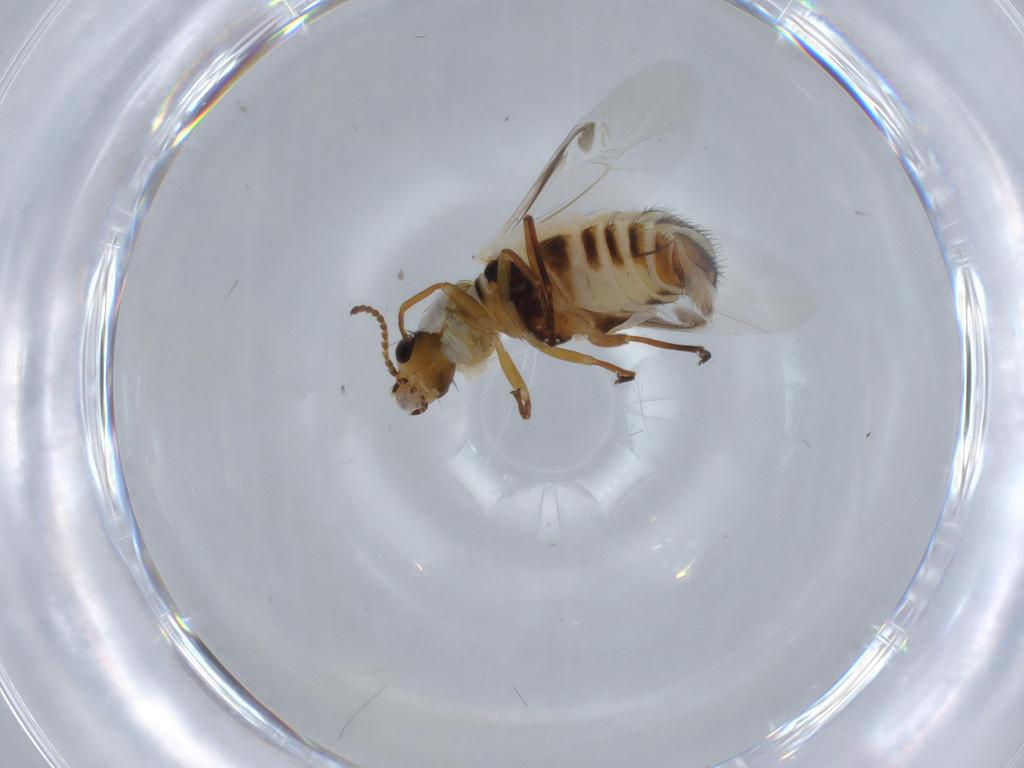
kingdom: Animalia
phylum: Arthropoda
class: Insecta
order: Coleoptera
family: Melyridae
